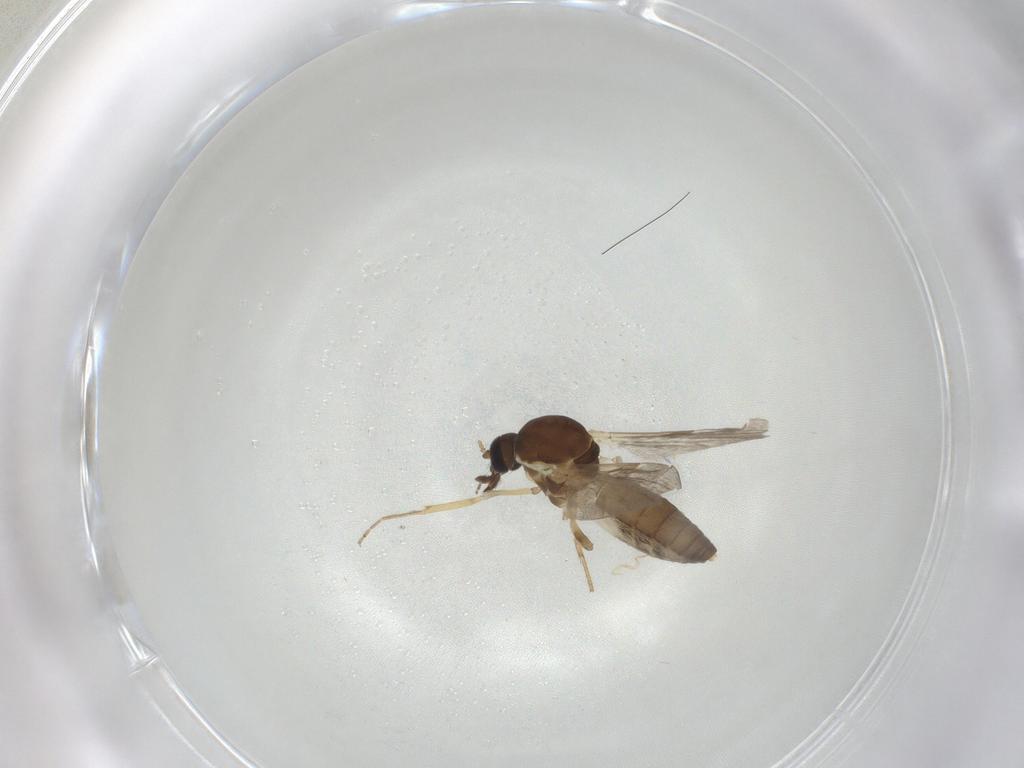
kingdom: Animalia
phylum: Arthropoda
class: Insecta
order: Diptera
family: Ceratopogonidae
